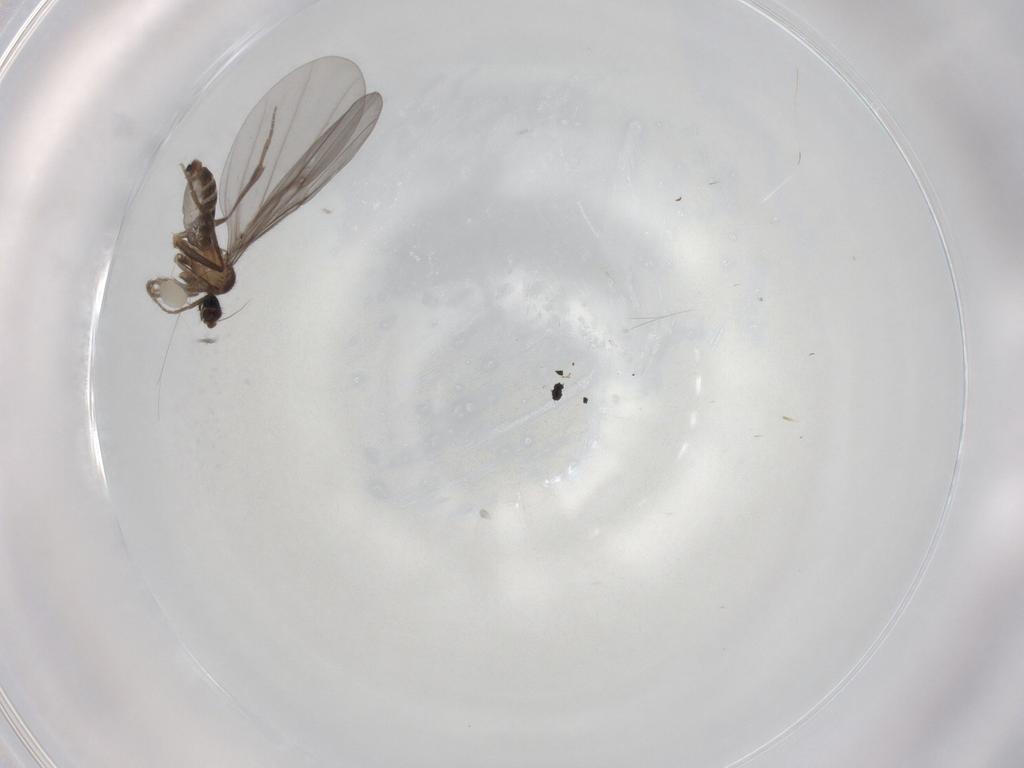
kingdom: Animalia
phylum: Arthropoda
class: Insecta
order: Diptera
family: Phoridae
